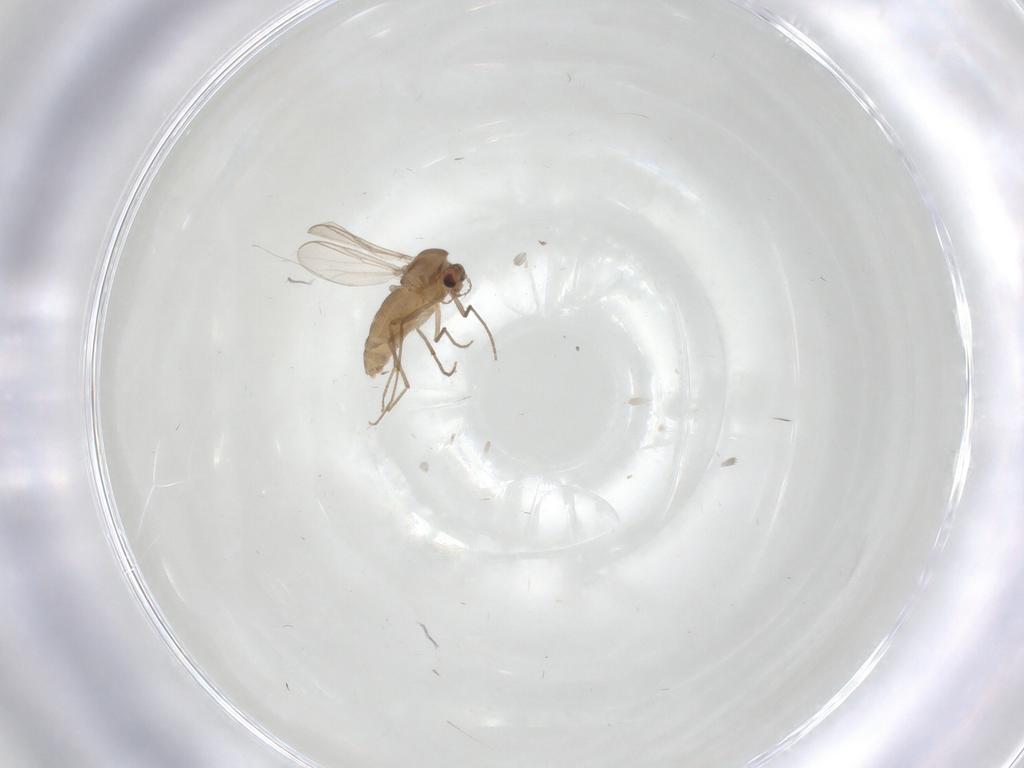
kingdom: Animalia
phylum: Arthropoda
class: Insecta
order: Diptera
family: Chironomidae
